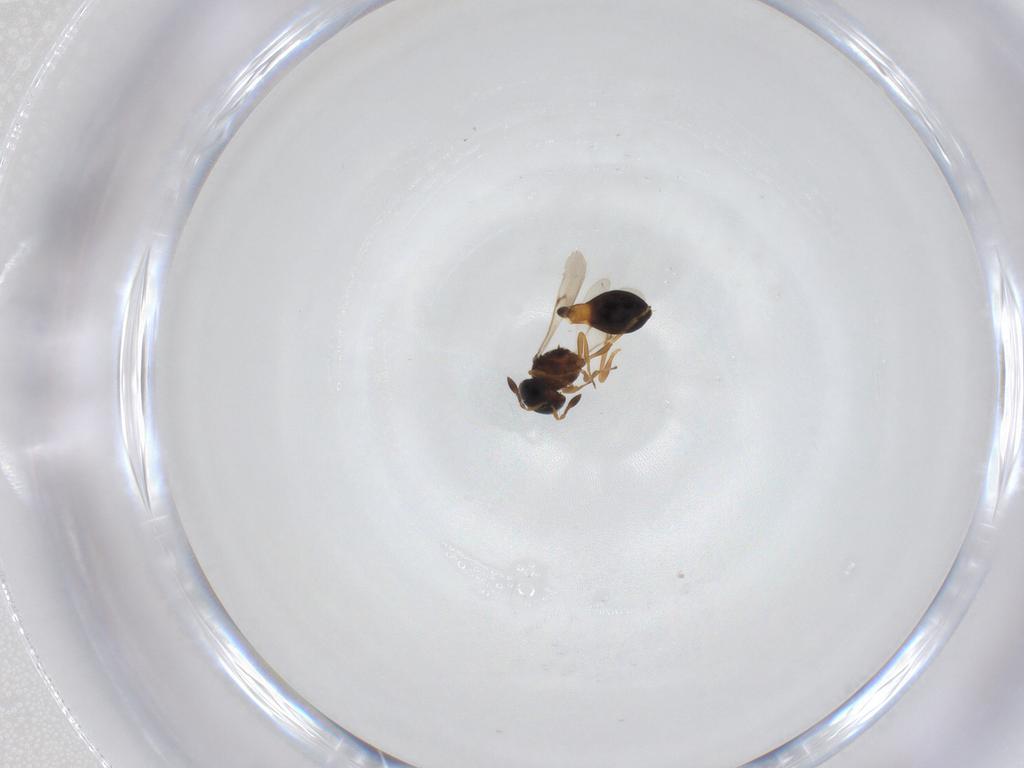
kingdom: Animalia
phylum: Arthropoda
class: Insecta
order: Hymenoptera
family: Scelionidae
